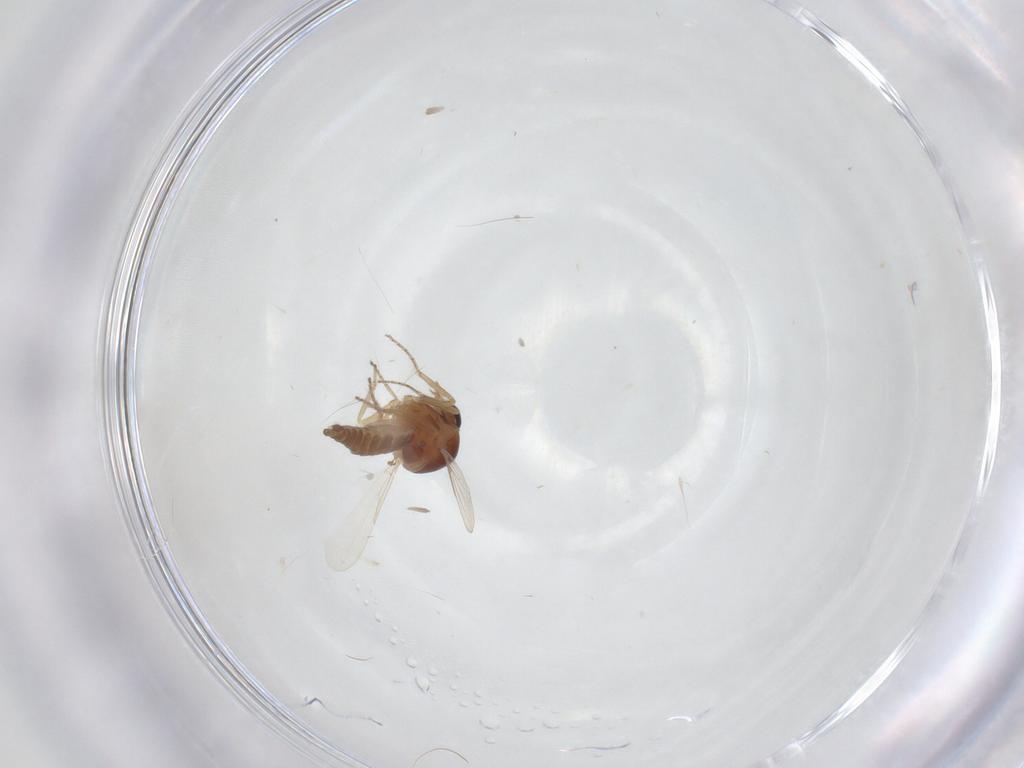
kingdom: Animalia
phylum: Arthropoda
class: Insecta
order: Diptera
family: Ceratopogonidae
